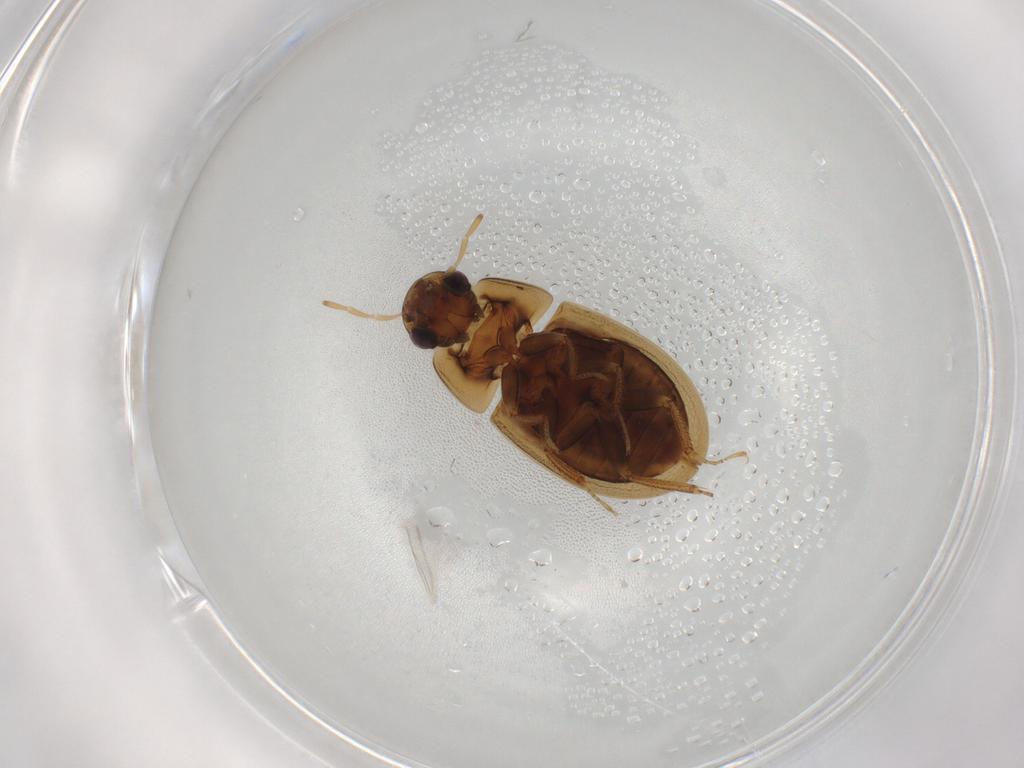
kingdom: Animalia
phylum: Arthropoda
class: Insecta
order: Coleoptera
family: Hydrophilidae
